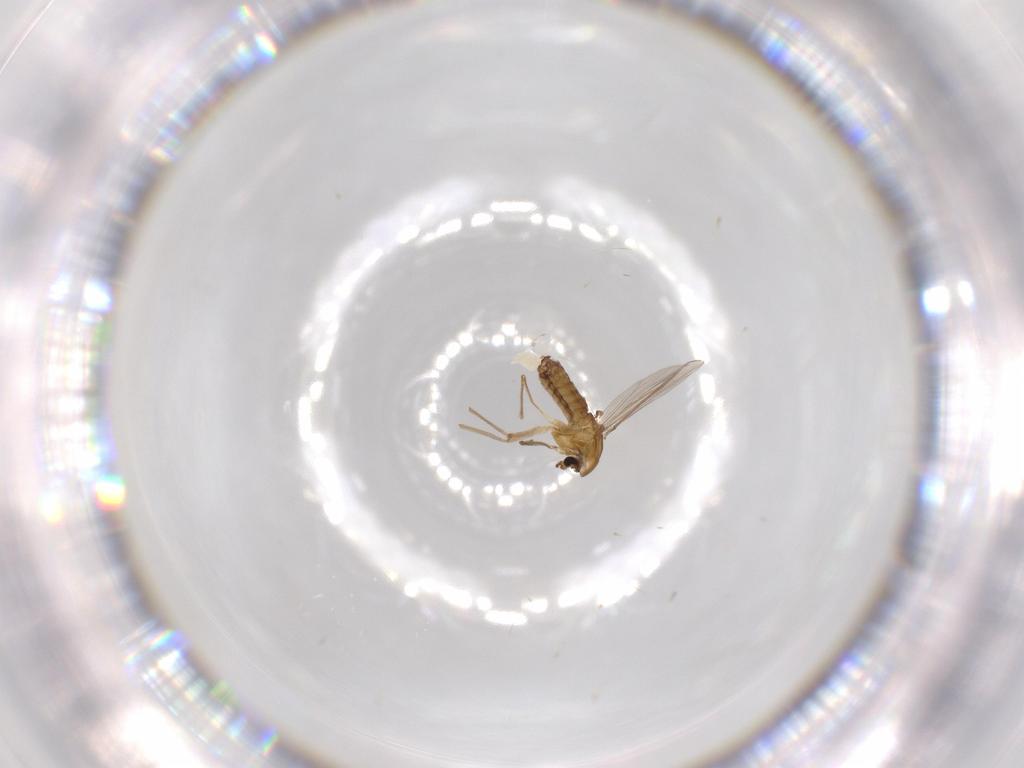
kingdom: Animalia
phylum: Arthropoda
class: Insecta
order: Diptera
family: Chironomidae
